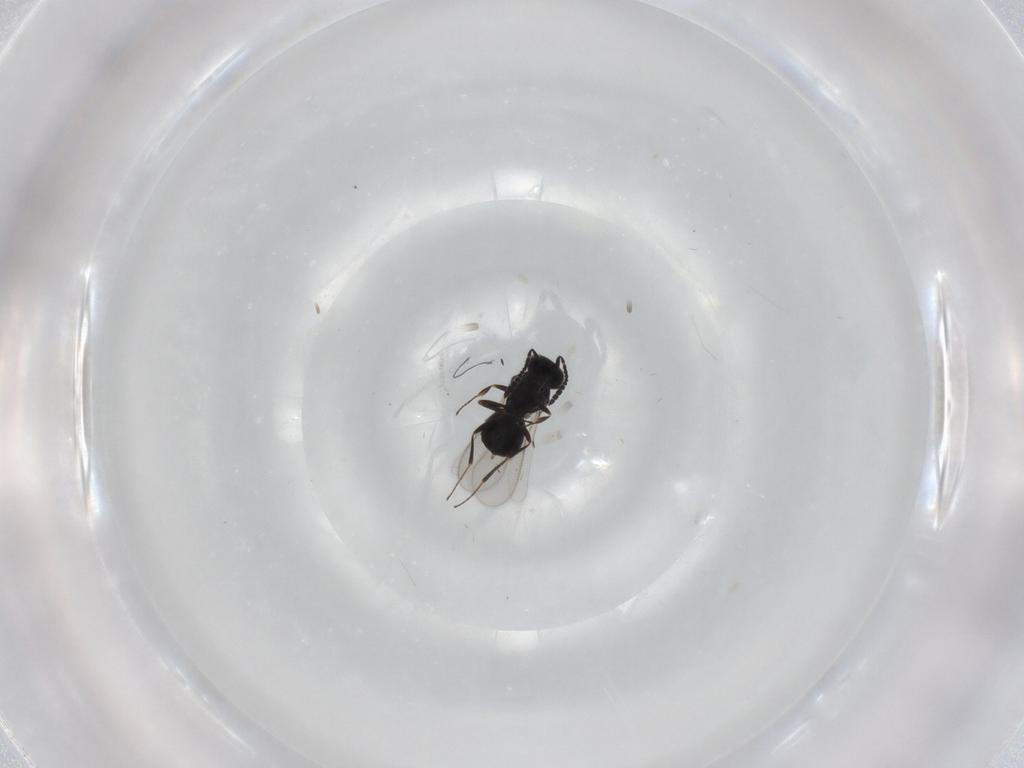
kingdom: Animalia
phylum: Arthropoda
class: Insecta
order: Hymenoptera
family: Scelionidae
